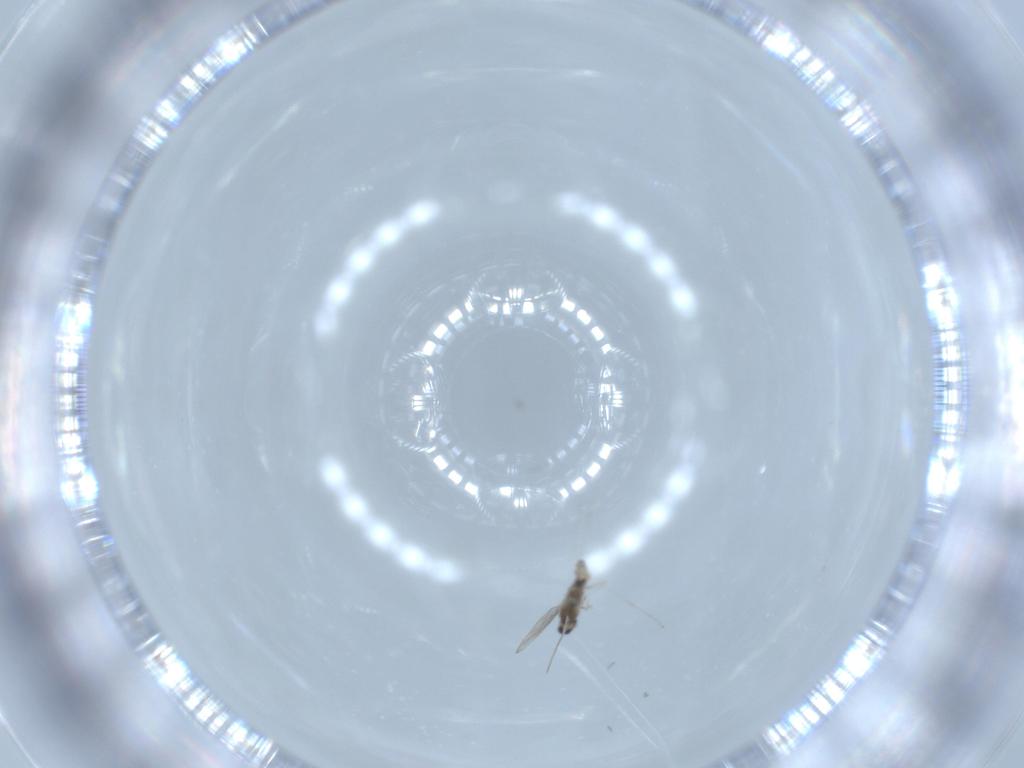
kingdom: Animalia
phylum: Arthropoda
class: Insecta
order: Diptera
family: Cecidomyiidae
